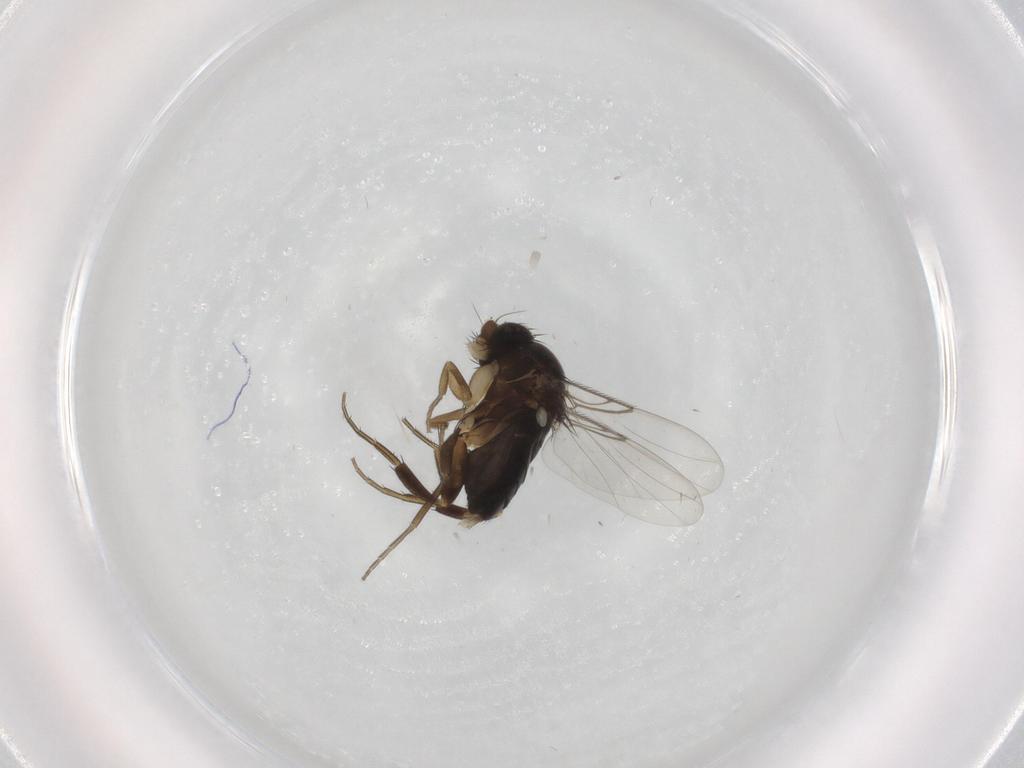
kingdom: Animalia
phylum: Arthropoda
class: Insecta
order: Diptera
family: Phoridae
